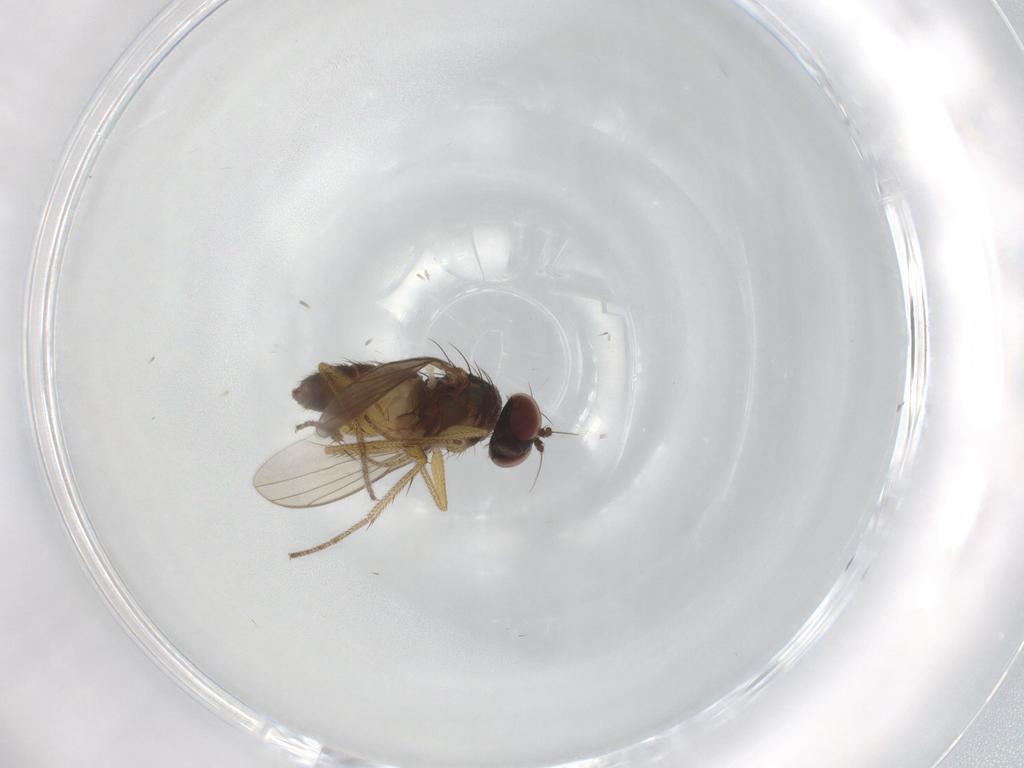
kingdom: Animalia
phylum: Arthropoda
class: Insecta
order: Diptera
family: Dolichopodidae
